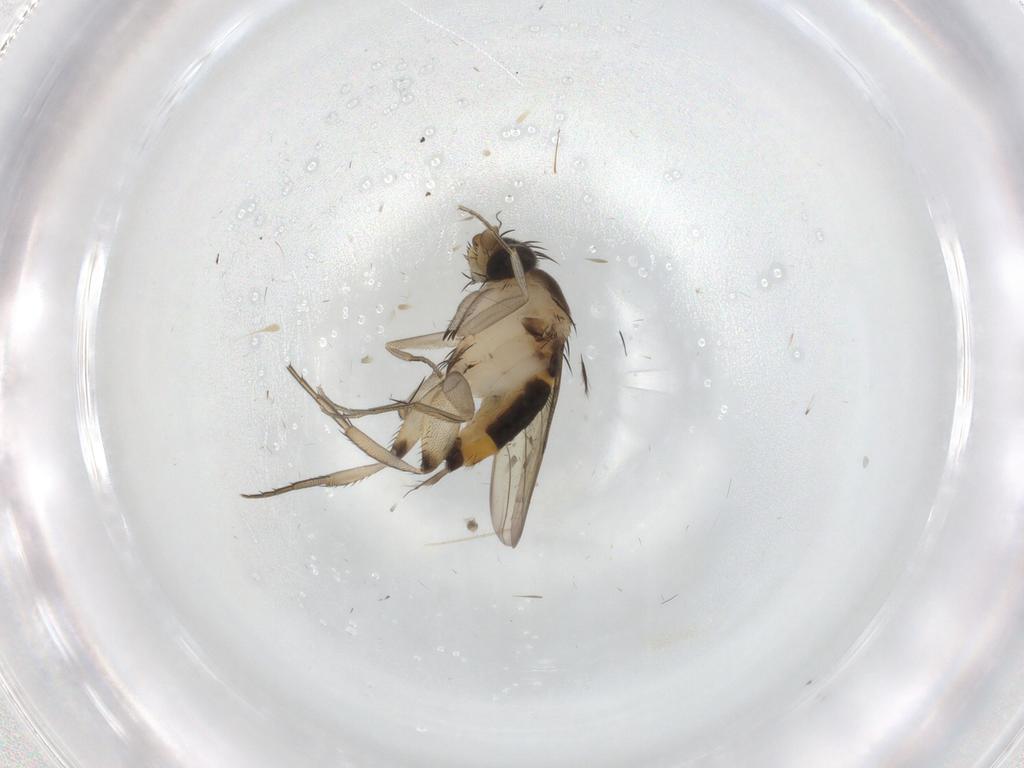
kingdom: Animalia
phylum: Arthropoda
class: Insecta
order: Diptera
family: Phoridae
